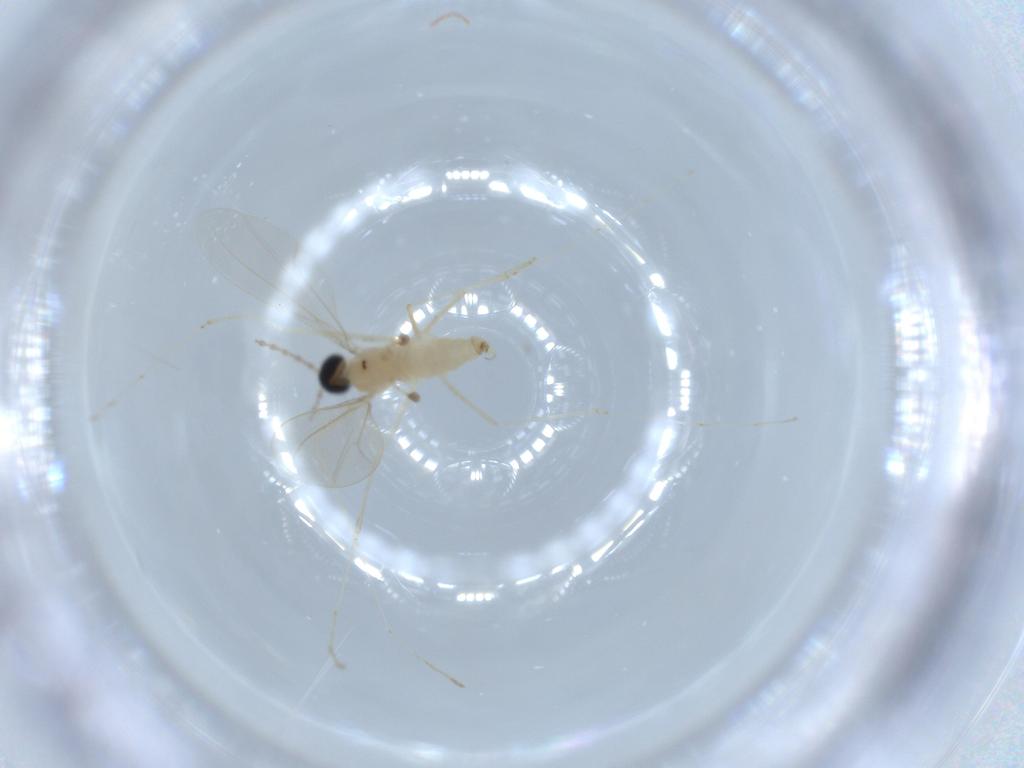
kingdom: Animalia
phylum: Arthropoda
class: Insecta
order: Diptera
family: Cecidomyiidae
